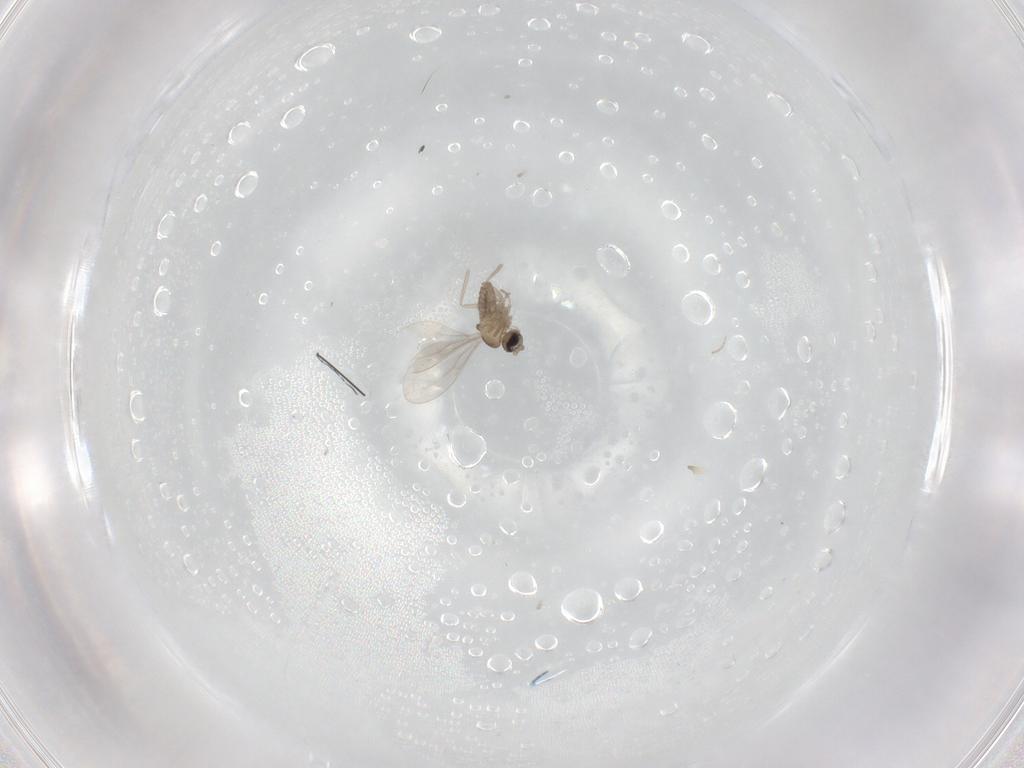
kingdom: Animalia
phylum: Arthropoda
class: Insecta
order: Diptera
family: Cecidomyiidae
